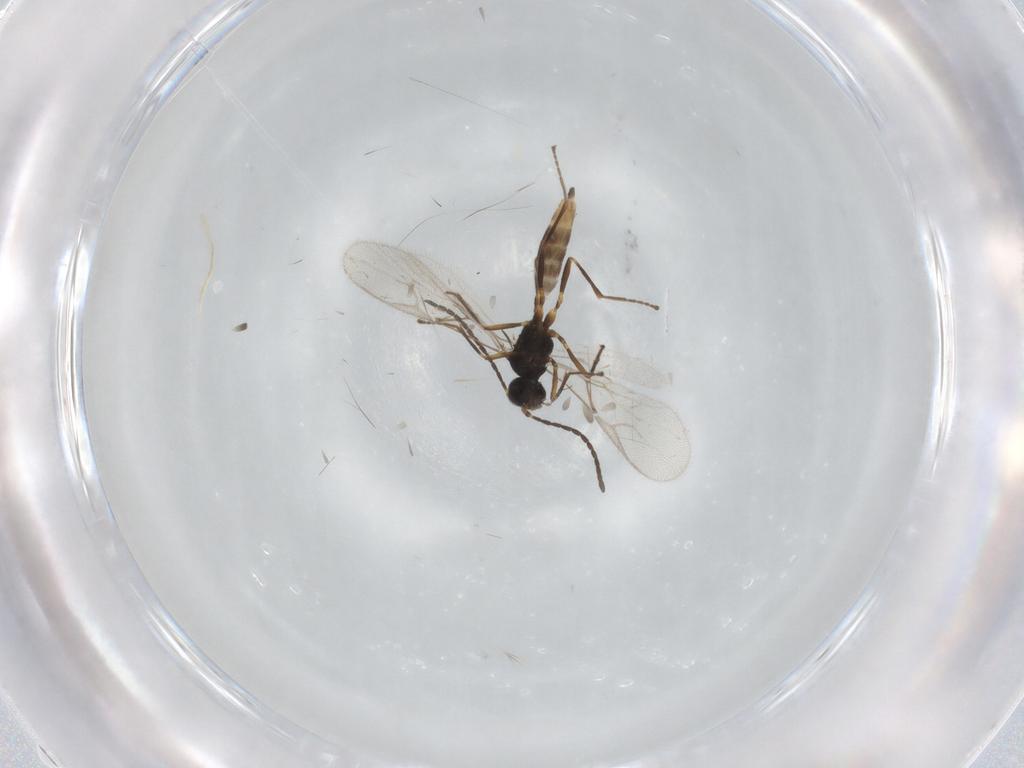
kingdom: Animalia
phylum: Arthropoda
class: Insecta
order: Hymenoptera
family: Braconidae
